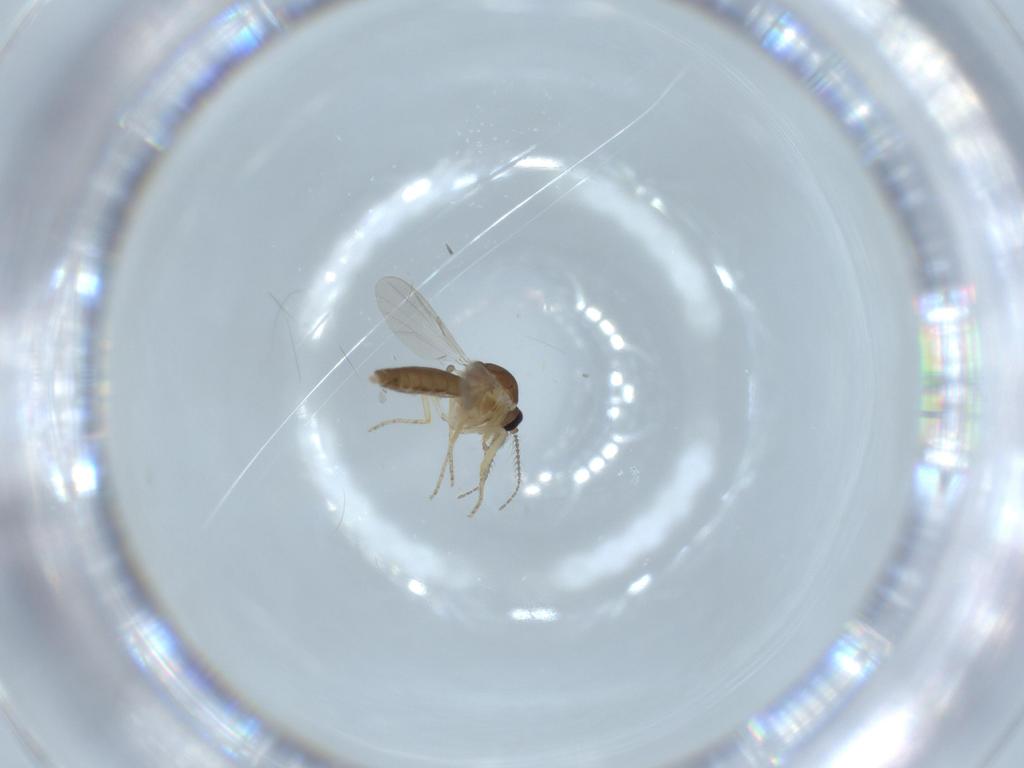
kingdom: Animalia
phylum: Arthropoda
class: Insecta
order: Diptera
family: Ceratopogonidae
